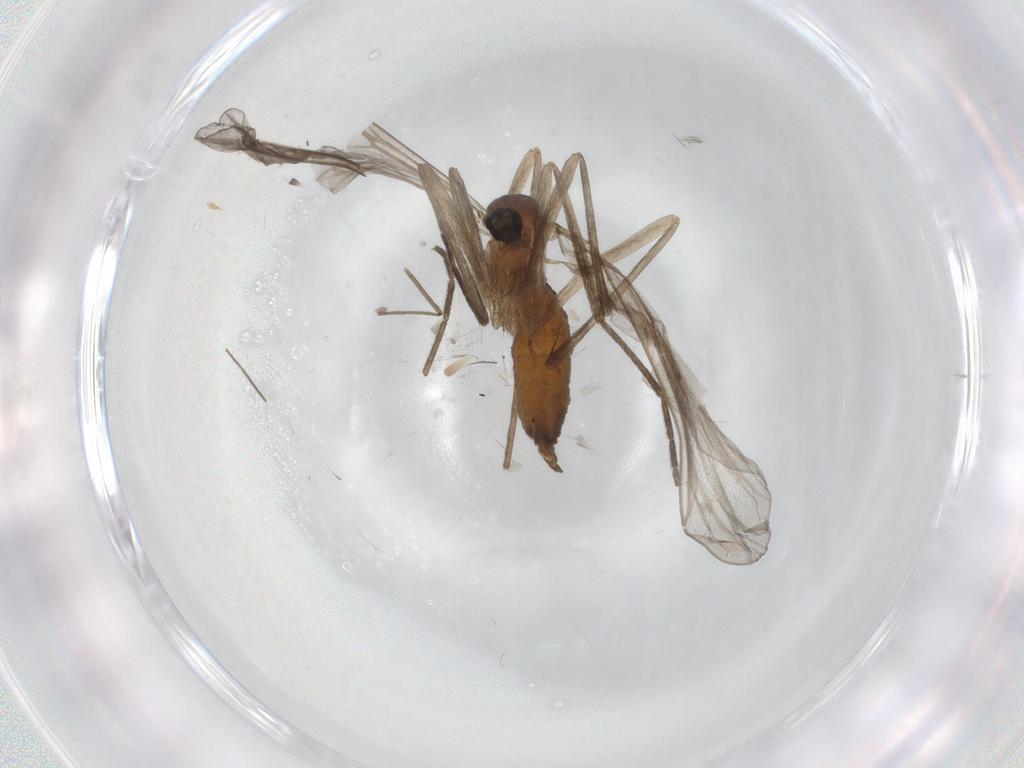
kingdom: Animalia
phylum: Arthropoda
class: Insecta
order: Diptera
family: Cecidomyiidae
